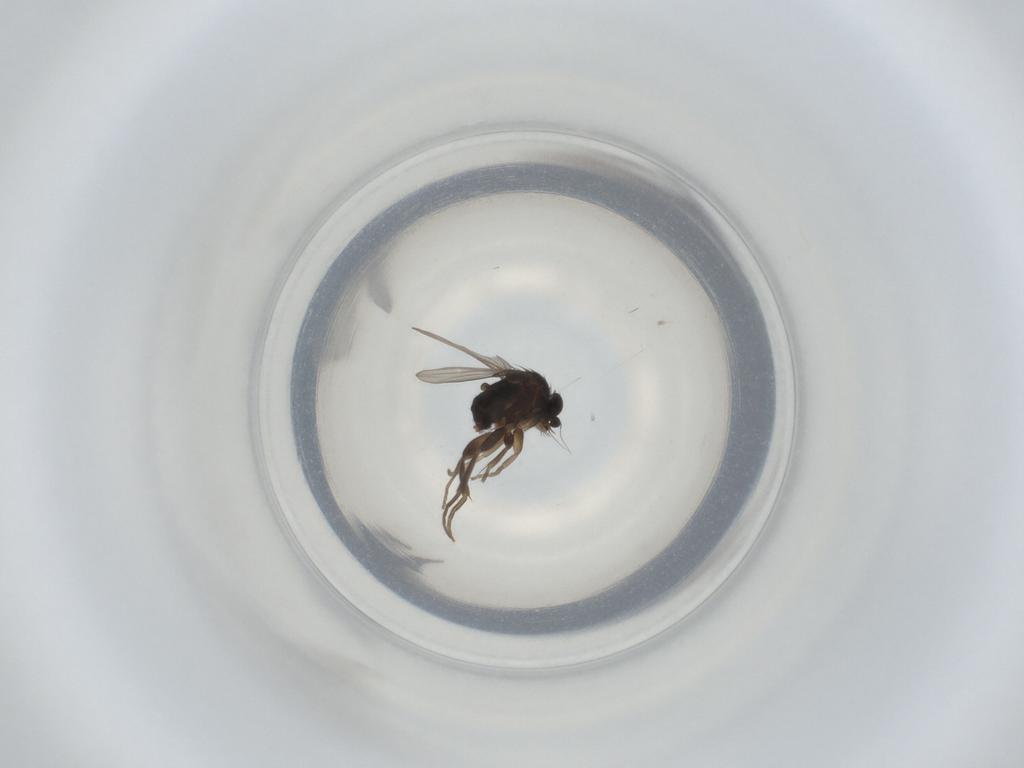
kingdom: Animalia
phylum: Arthropoda
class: Insecta
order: Diptera
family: Phoridae
